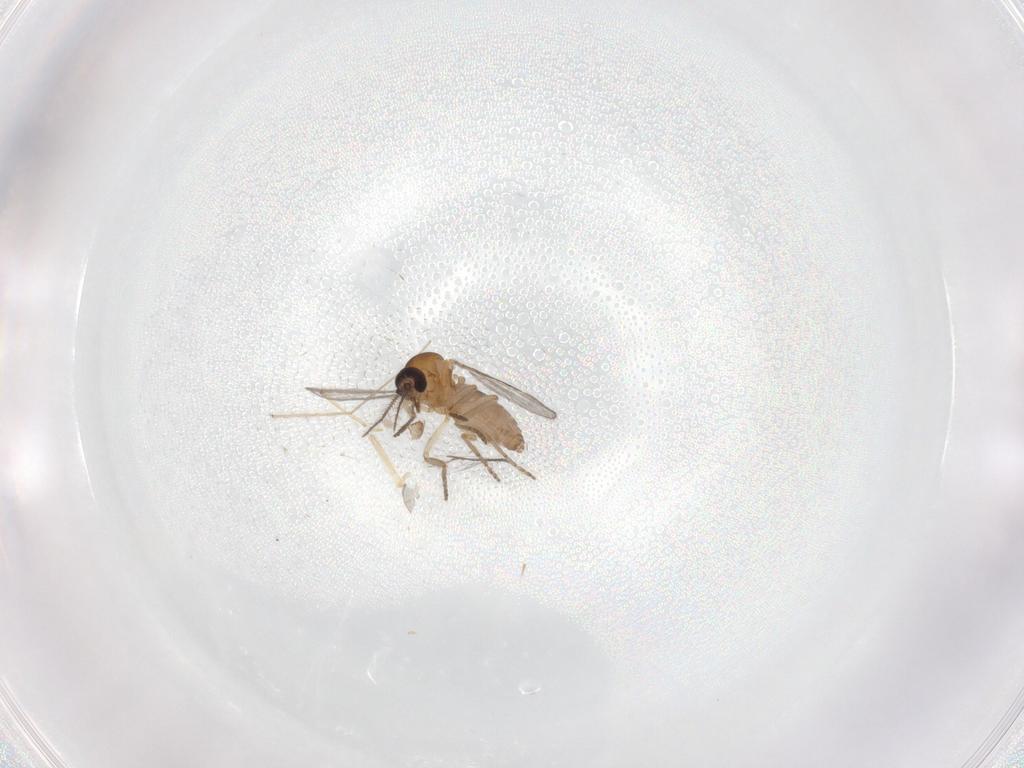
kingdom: Animalia
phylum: Arthropoda
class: Insecta
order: Diptera
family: Chironomidae
